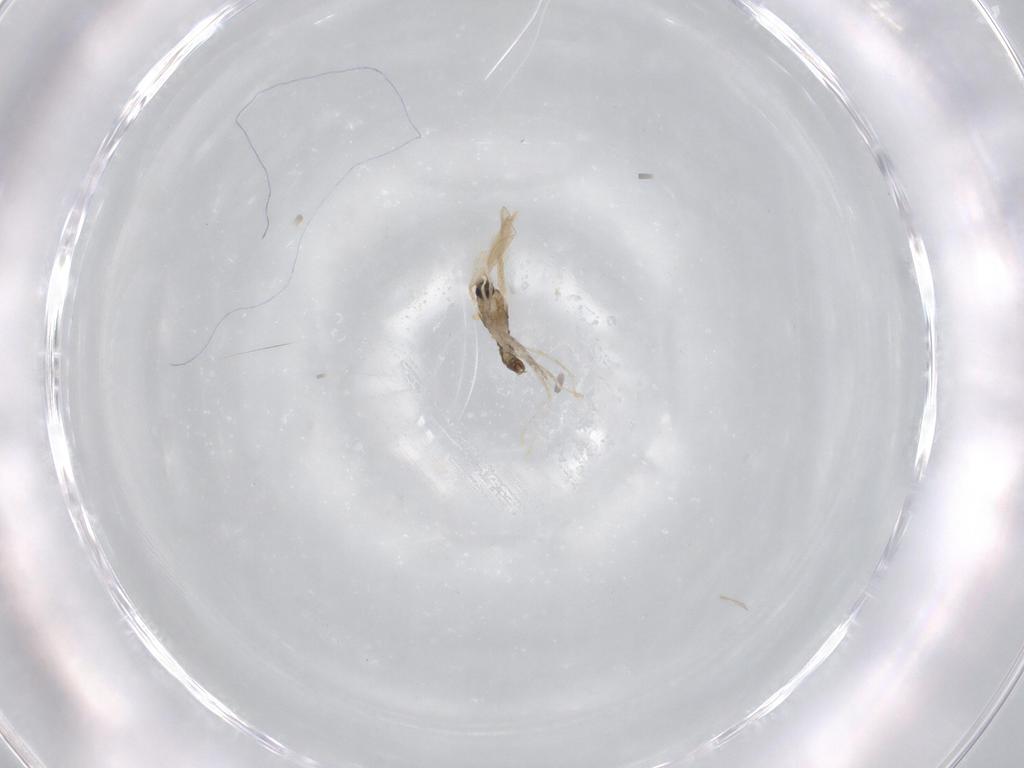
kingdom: Animalia
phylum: Arthropoda
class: Insecta
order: Diptera
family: Cecidomyiidae
